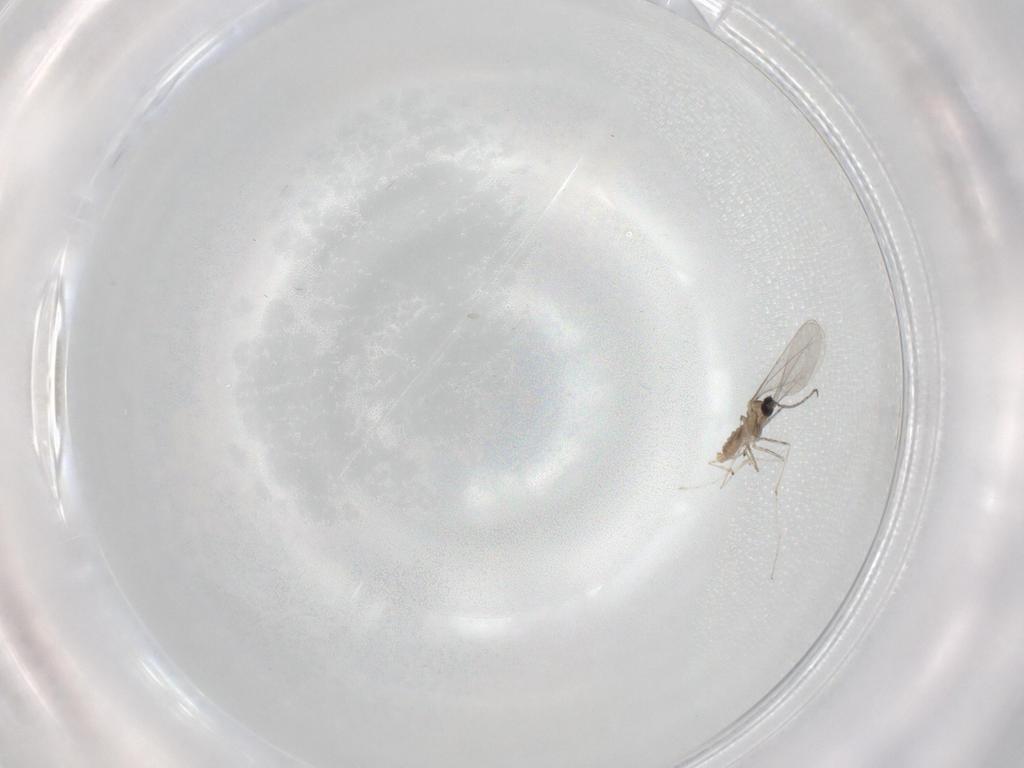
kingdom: Animalia
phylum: Arthropoda
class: Insecta
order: Diptera
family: Cecidomyiidae
